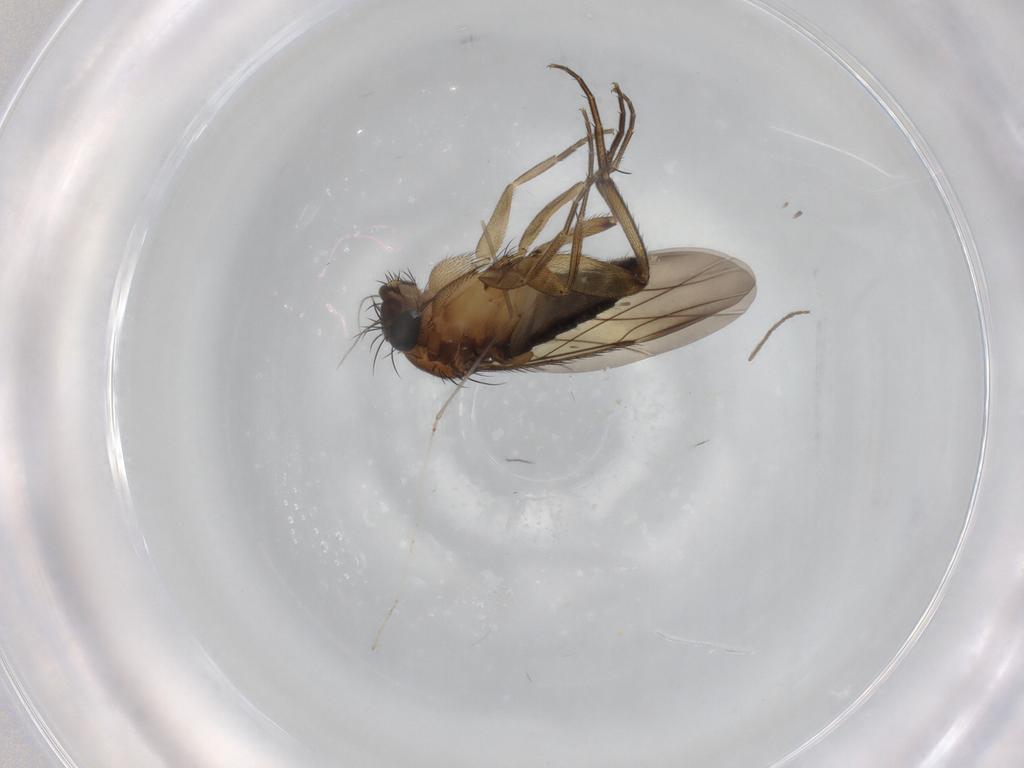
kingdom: Animalia
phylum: Arthropoda
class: Insecta
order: Diptera
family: Phoridae
